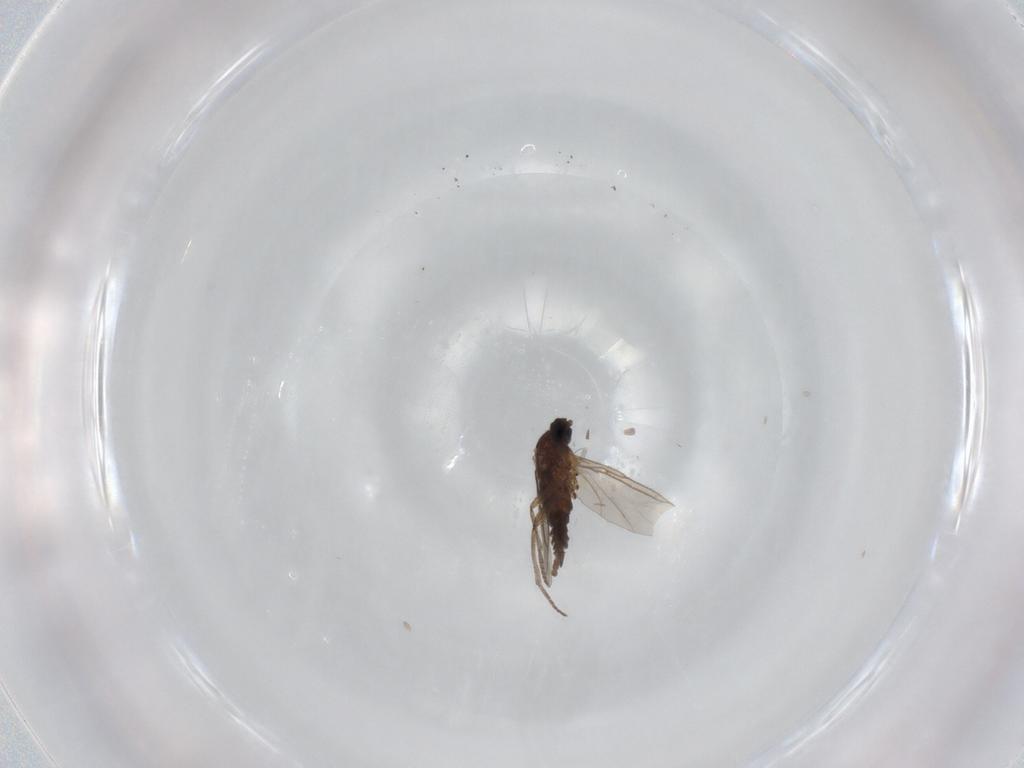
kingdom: Animalia
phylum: Arthropoda
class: Insecta
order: Diptera
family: Sciaridae
